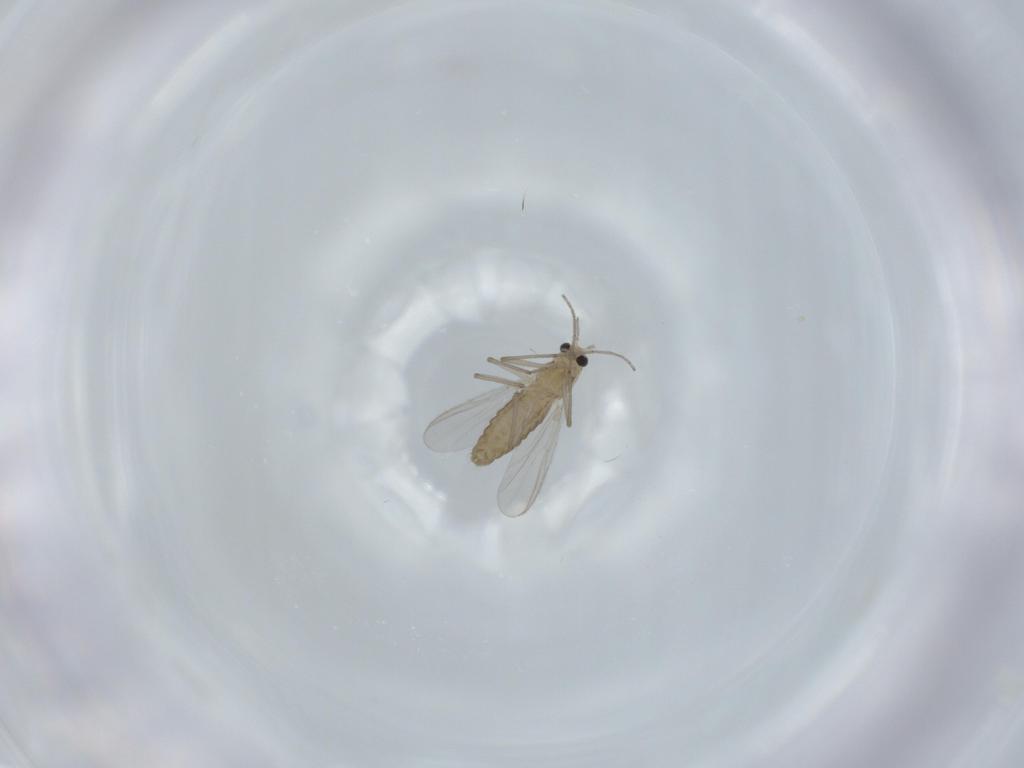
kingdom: Animalia
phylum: Arthropoda
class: Insecta
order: Diptera
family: Chironomidae
